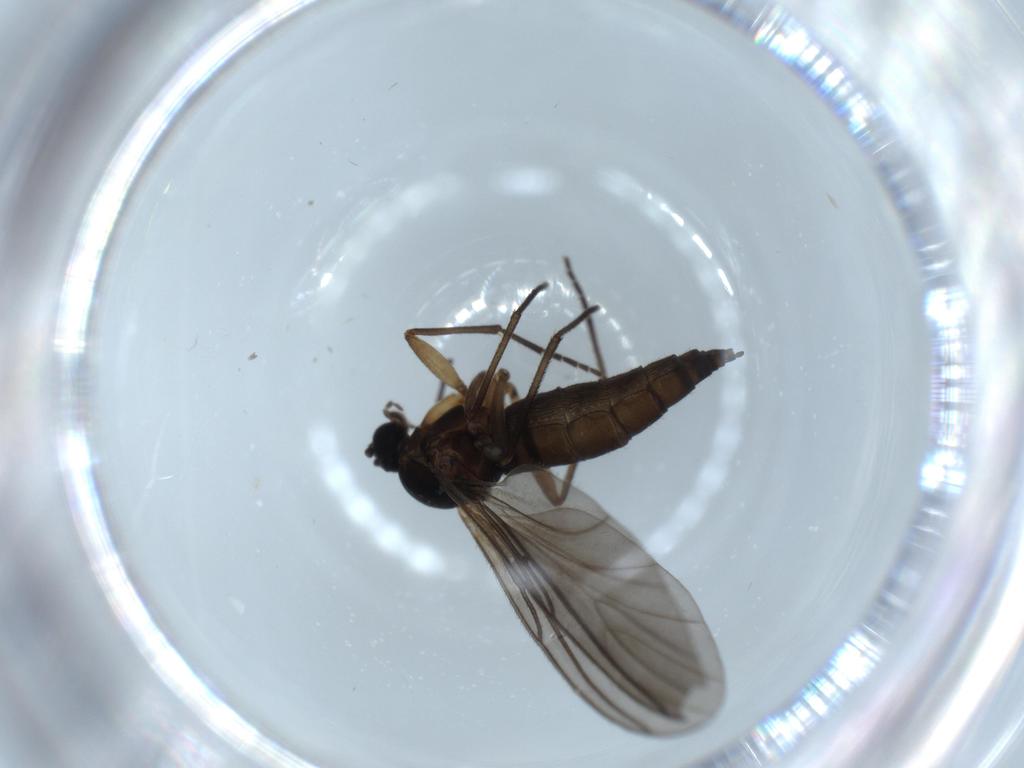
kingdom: Animalia
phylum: Arthropoda
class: Insecta
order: Diptera
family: Sciaridae
